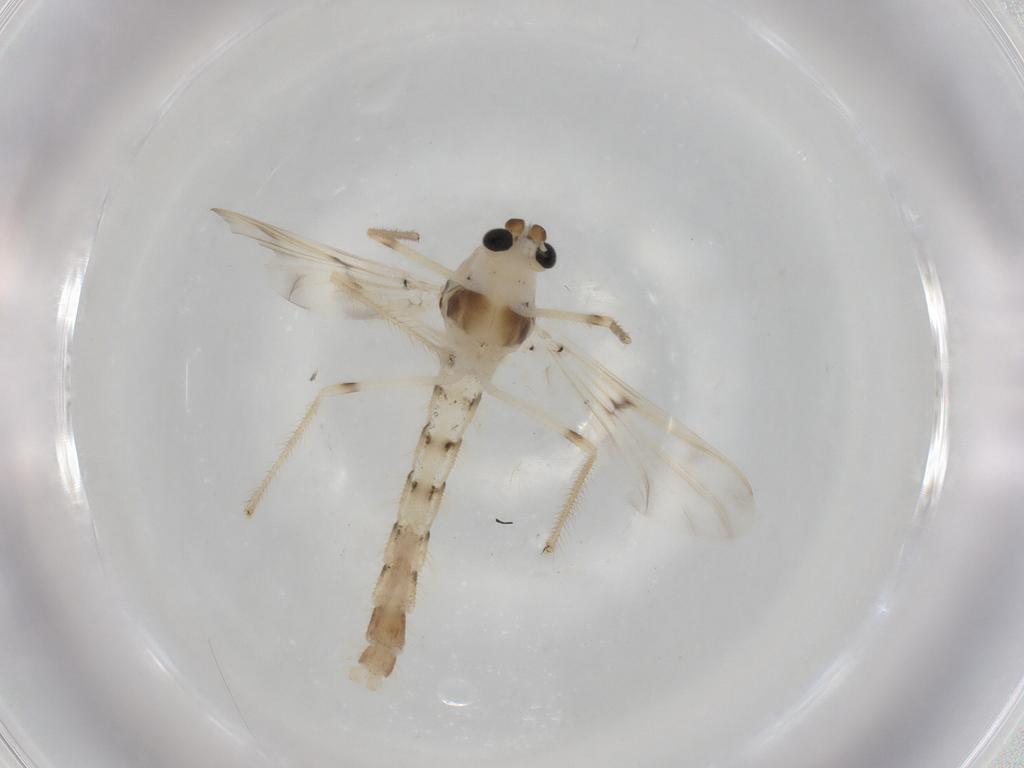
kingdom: Animalia
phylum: Arthropoda
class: Insecta
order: Diptera
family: Chironomidae
